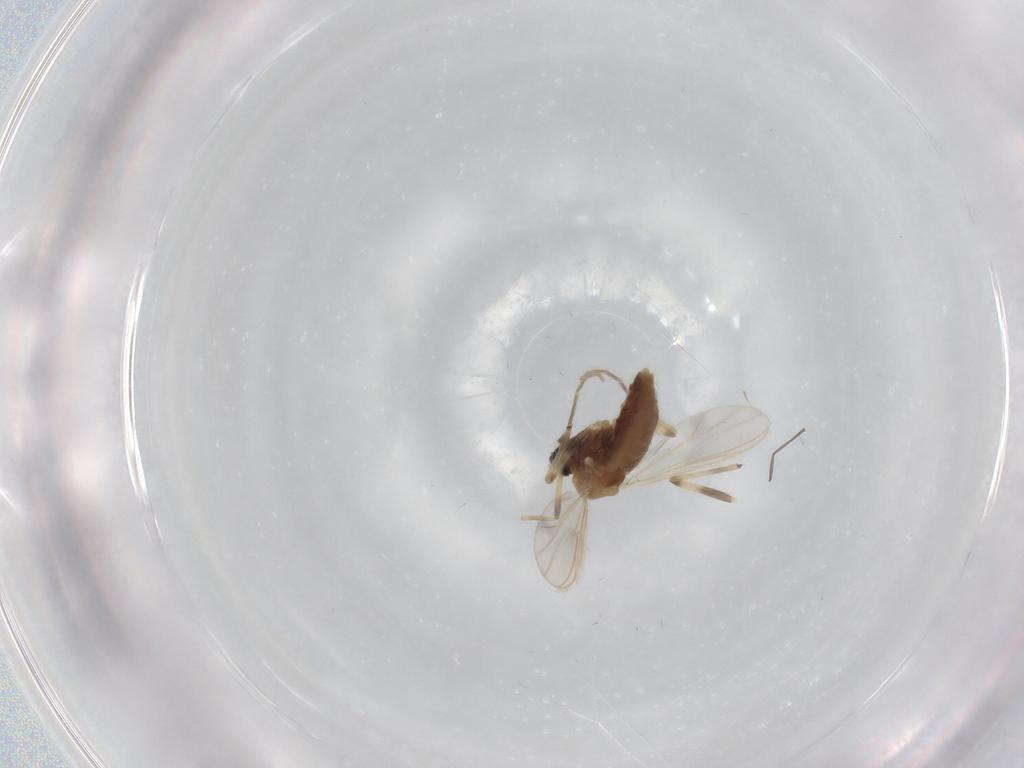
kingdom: Animalia
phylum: Arthropoda
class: Insecta
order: Diptera
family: Chironomidae
